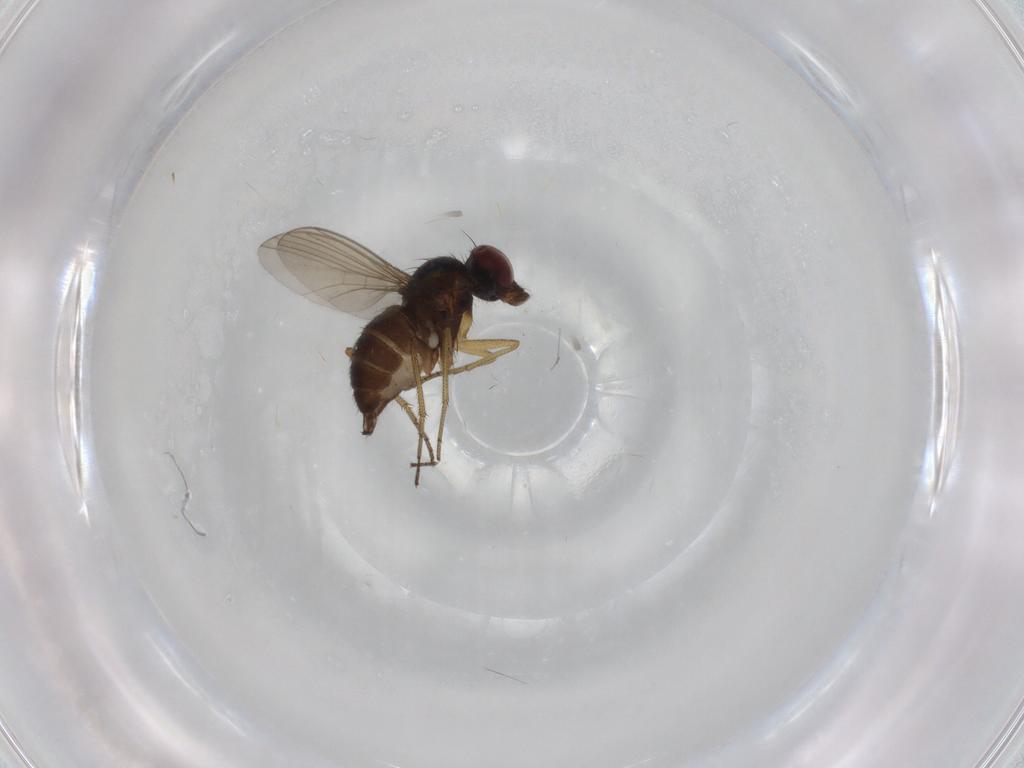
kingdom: Animalia
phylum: Arthropoda
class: Insecta
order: Diptera
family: Dolichopodidae
